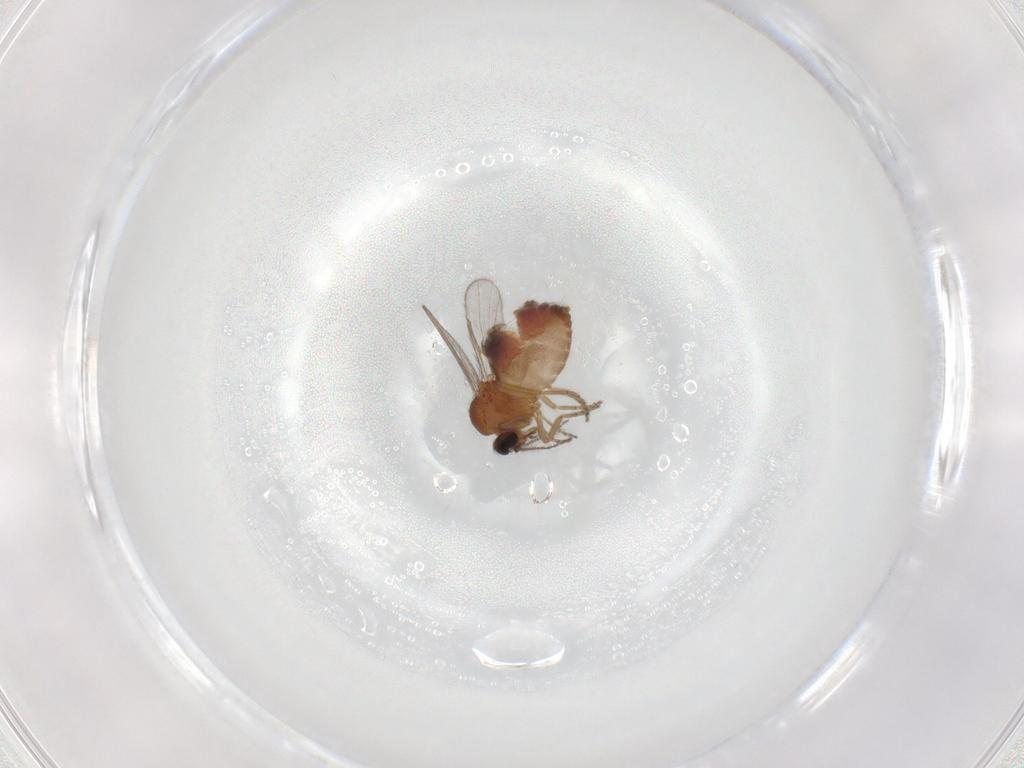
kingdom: Animalia
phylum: Arthropoda
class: Insecta
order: Diptera
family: Ceratopogonidae
